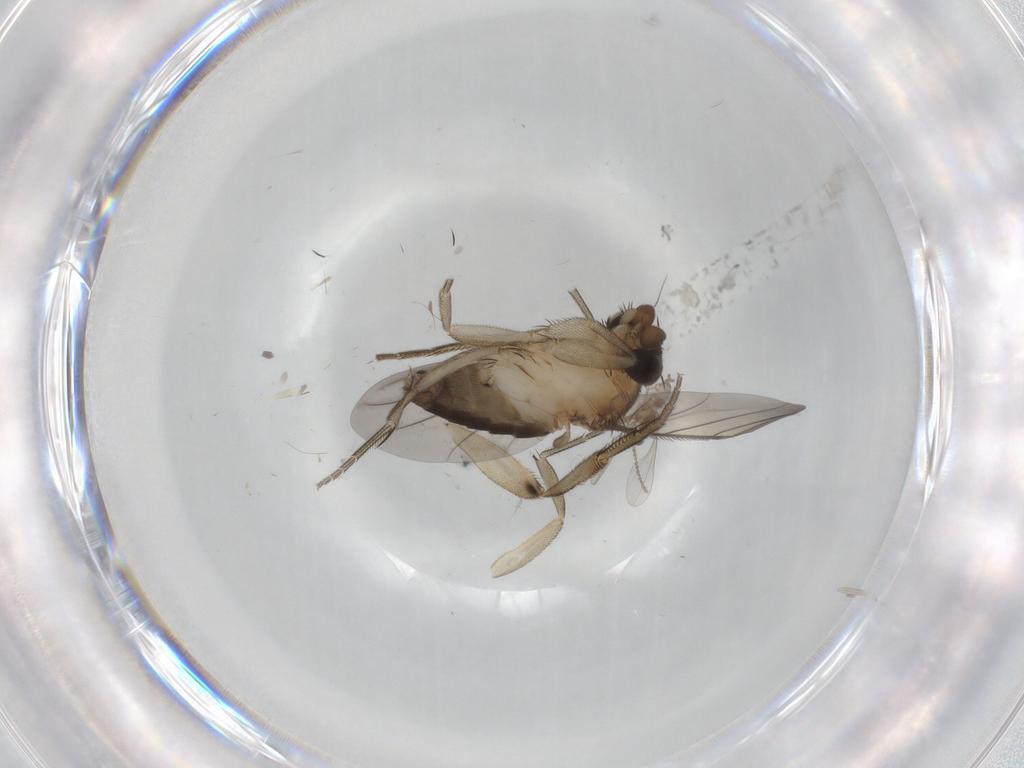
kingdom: Animalia
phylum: Arthropoda
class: Insecta
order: Diptera
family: Phoridae
